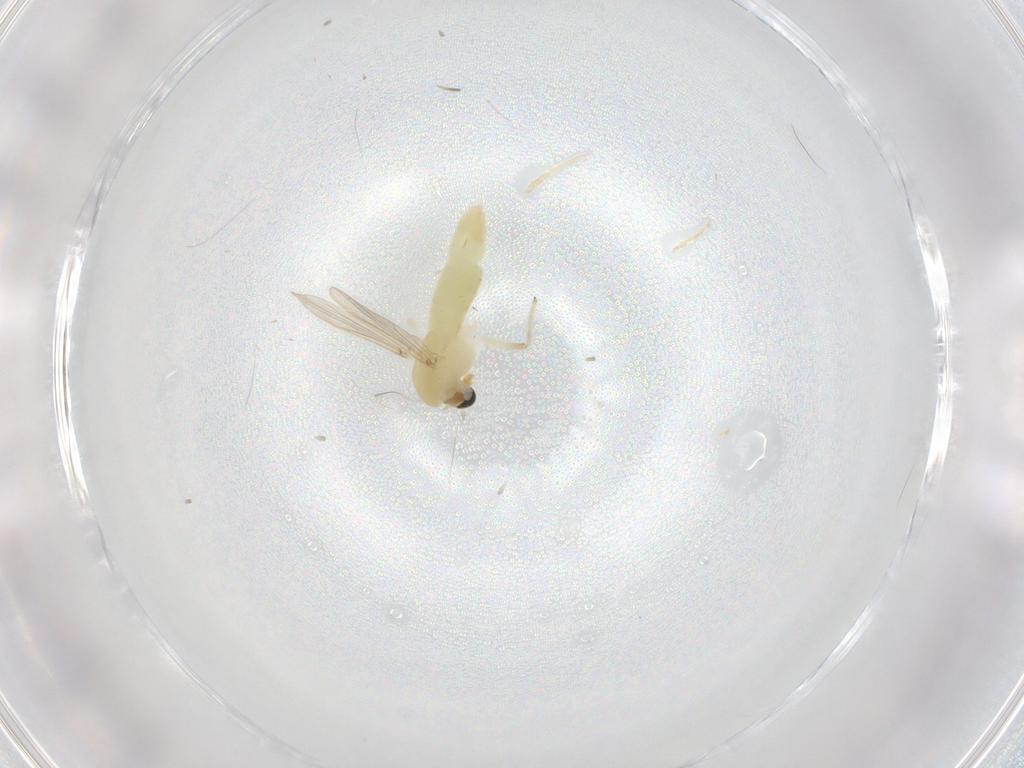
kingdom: Animalia
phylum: Arthropoda
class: Insecta
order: Diptera
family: Chironomidae
